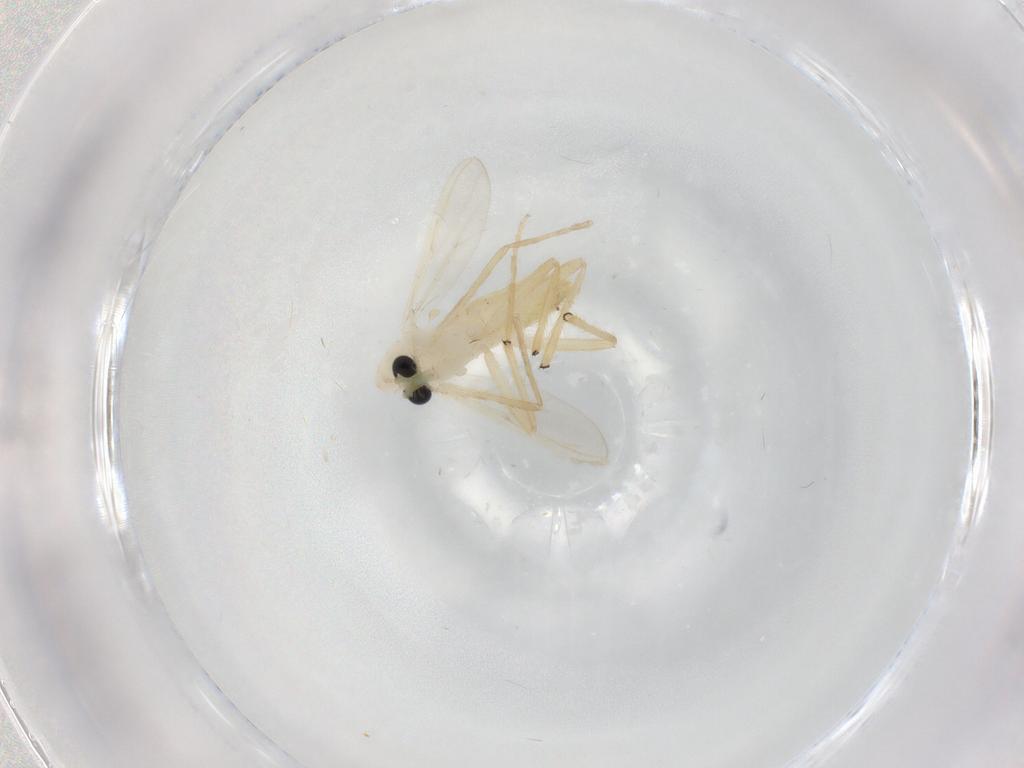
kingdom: Animalia
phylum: Arthropoda
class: Insecta
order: Diptera
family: Chironomidae
